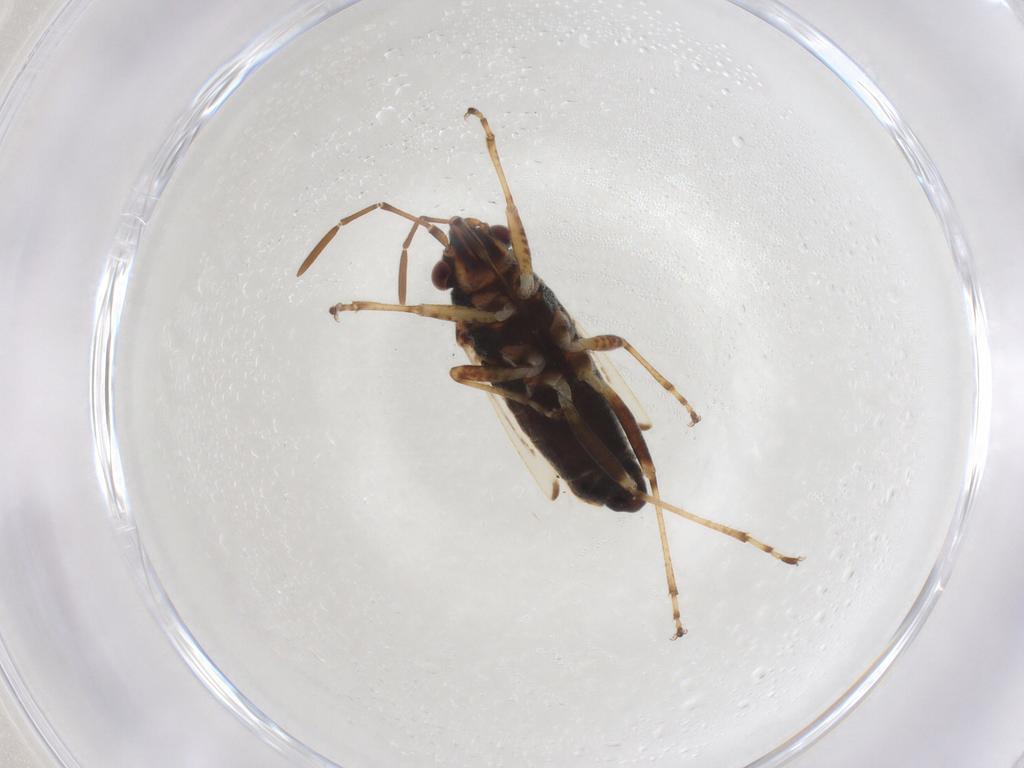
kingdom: Animalia
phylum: Arthropoda
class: Insecta
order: Hemiptera
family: Lygaeidae
